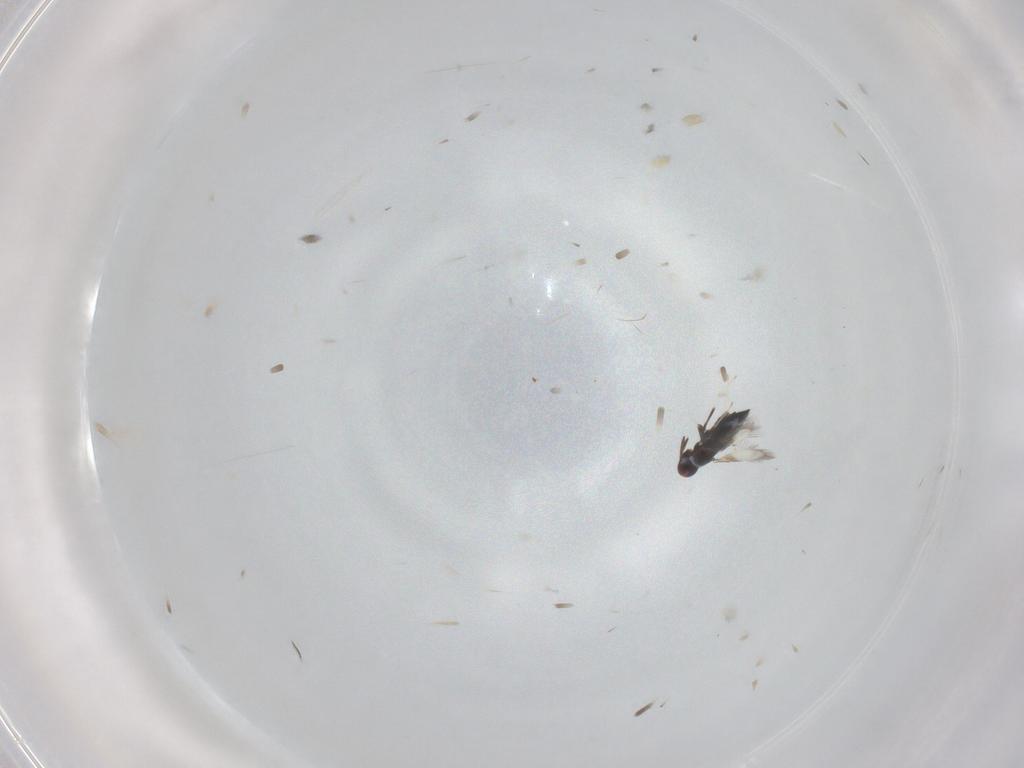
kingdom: Animalia
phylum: Arthropoda
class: Insecta
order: Hymenoptera
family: Signiphoridae
